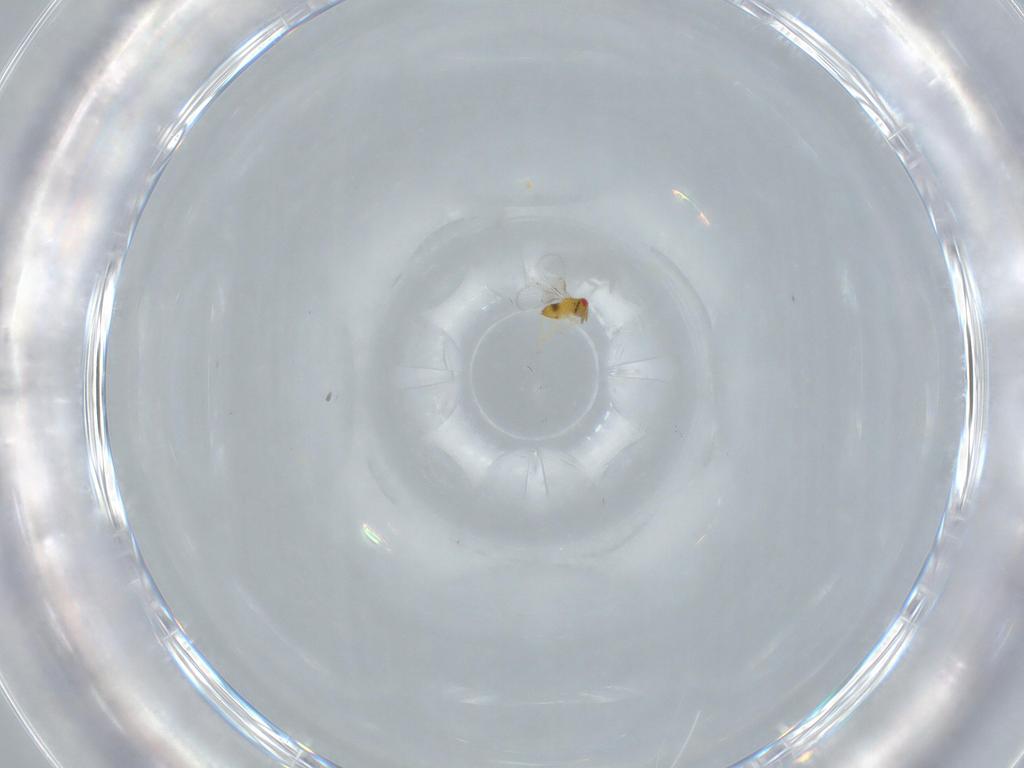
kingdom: Animalia
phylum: Arthropoda
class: Insecta
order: Hymenoptera
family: Trichogrammatidae
